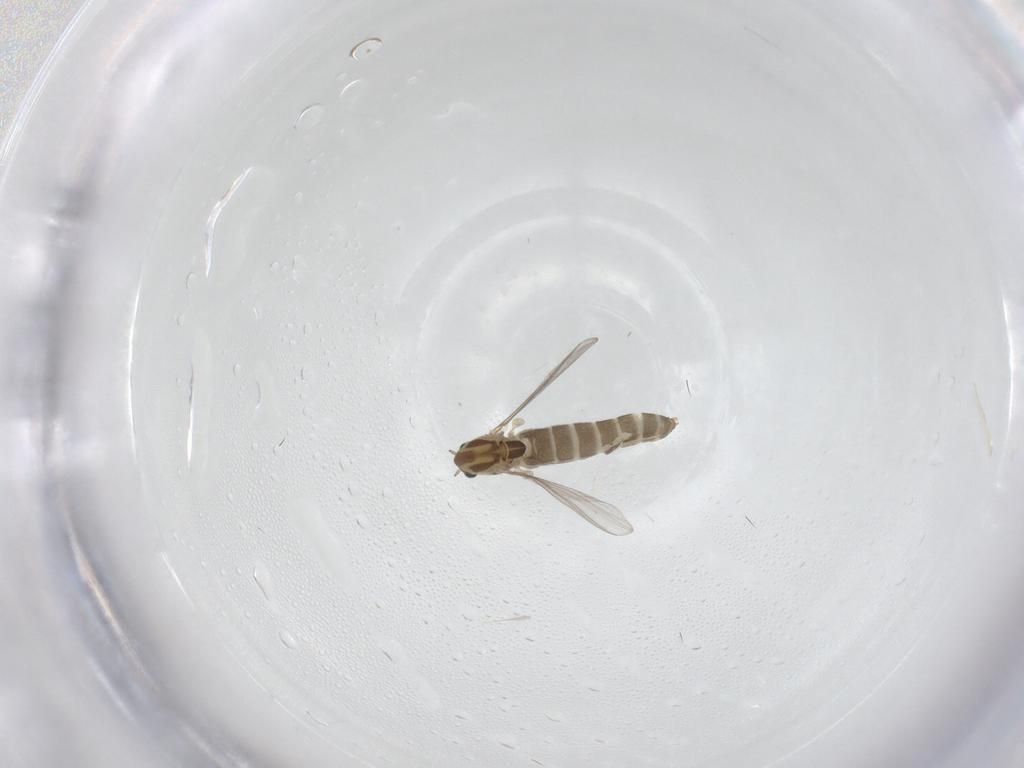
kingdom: Animalia
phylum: Arthropoda
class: Insecta
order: Diptera
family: Chironomidae
